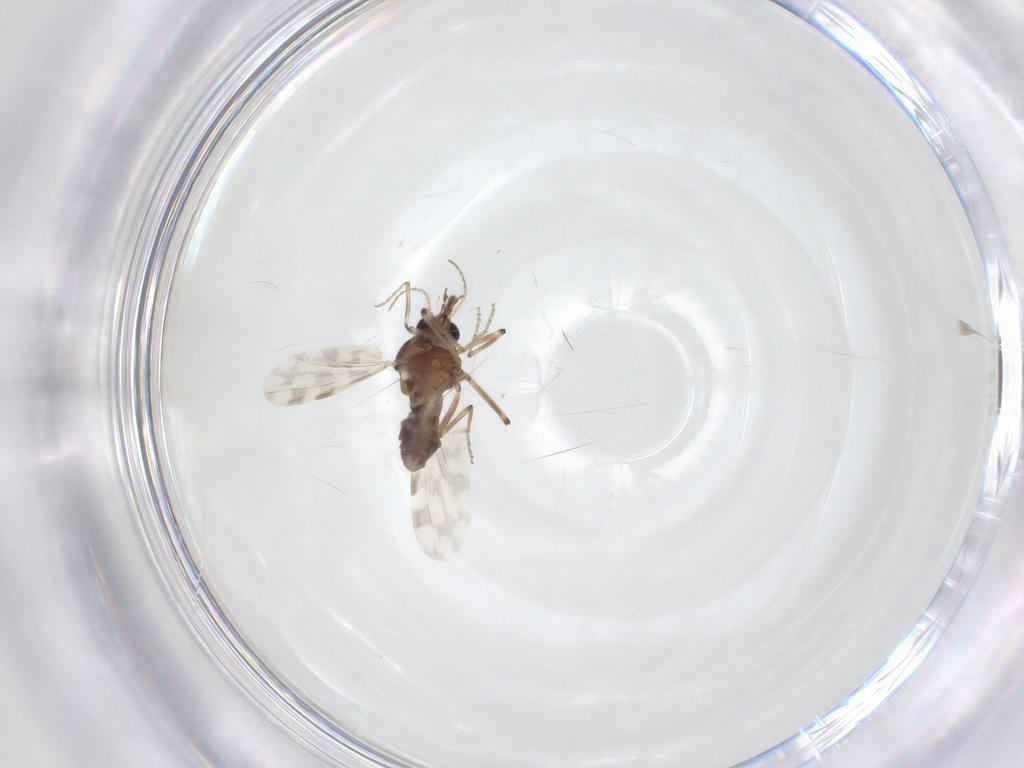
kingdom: Animalia
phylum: Arthropoda
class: Insecta
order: Diptera
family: Ceratopogonidae
